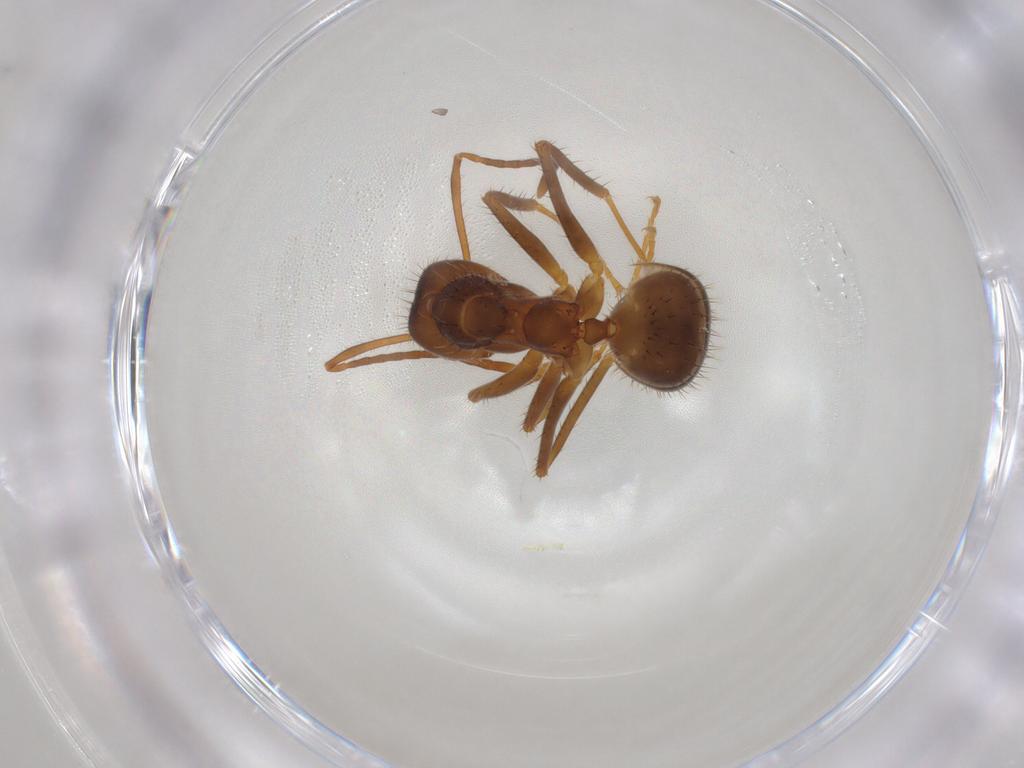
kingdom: Animalia
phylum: Arthropoda
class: Insecta
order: Hymenoptera
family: Formicidae
